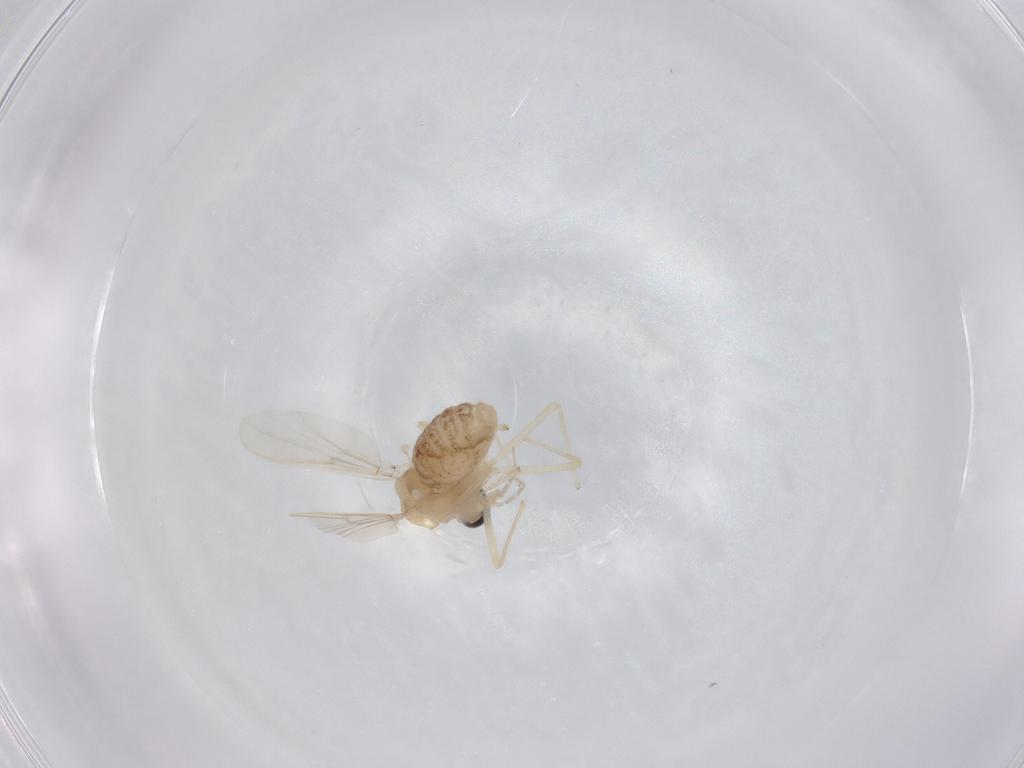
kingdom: Animalia
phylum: Arthropoda
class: Insecta
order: Diptera
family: Chironomidae
